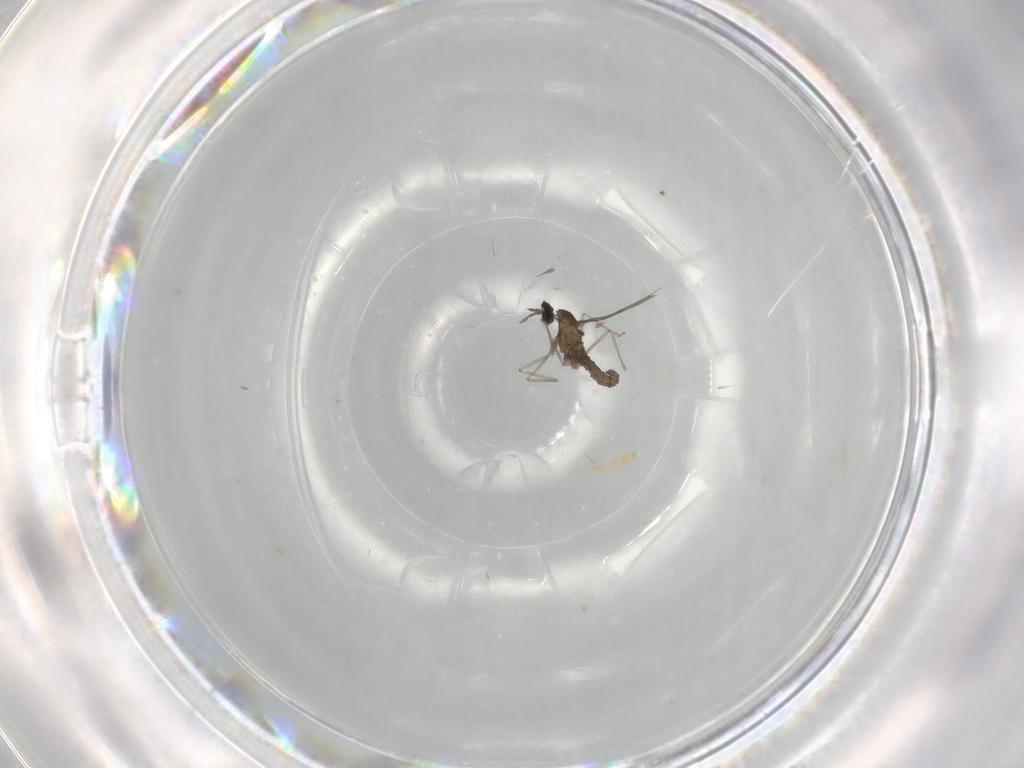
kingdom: Animalia
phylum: Arthropoda
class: Insecta
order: Diptera
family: Cecidomyiidae
